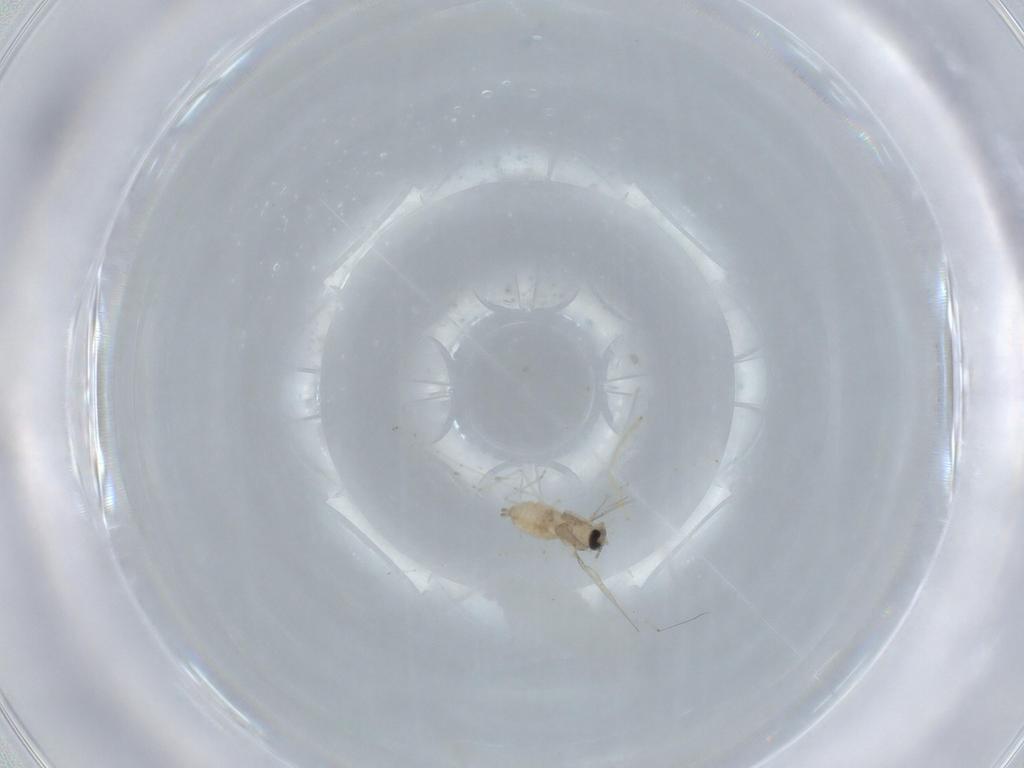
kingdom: Animalia
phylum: Arthropoda
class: Insecta
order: Diptera
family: Cecidomyiidae
